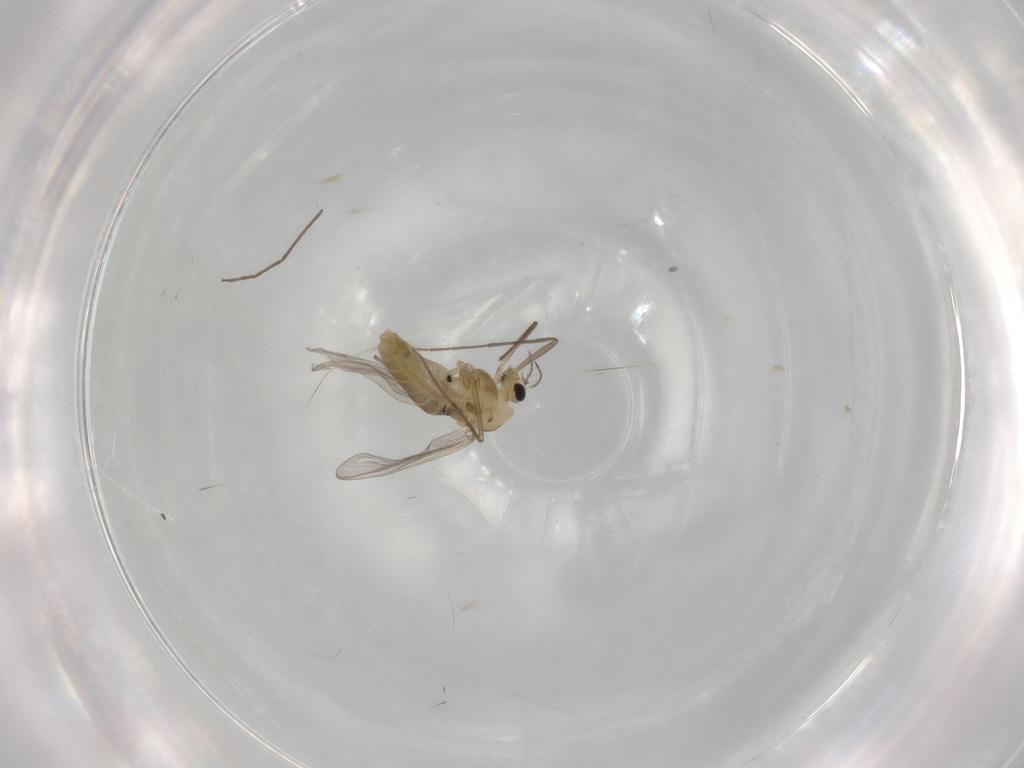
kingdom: Animalia
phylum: Arthropoda
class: Insecta
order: Diptera
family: Chironomidae
